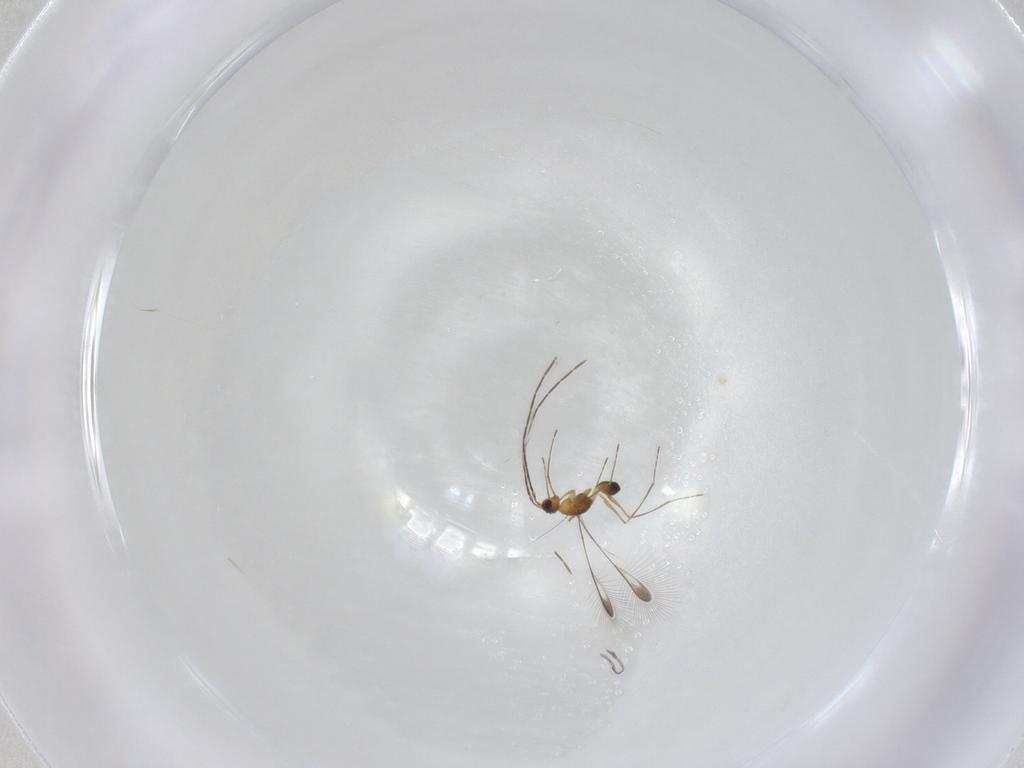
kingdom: Animalia
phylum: Arthropoda
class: Insecta
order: Hymenoptera
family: Mymaridae
